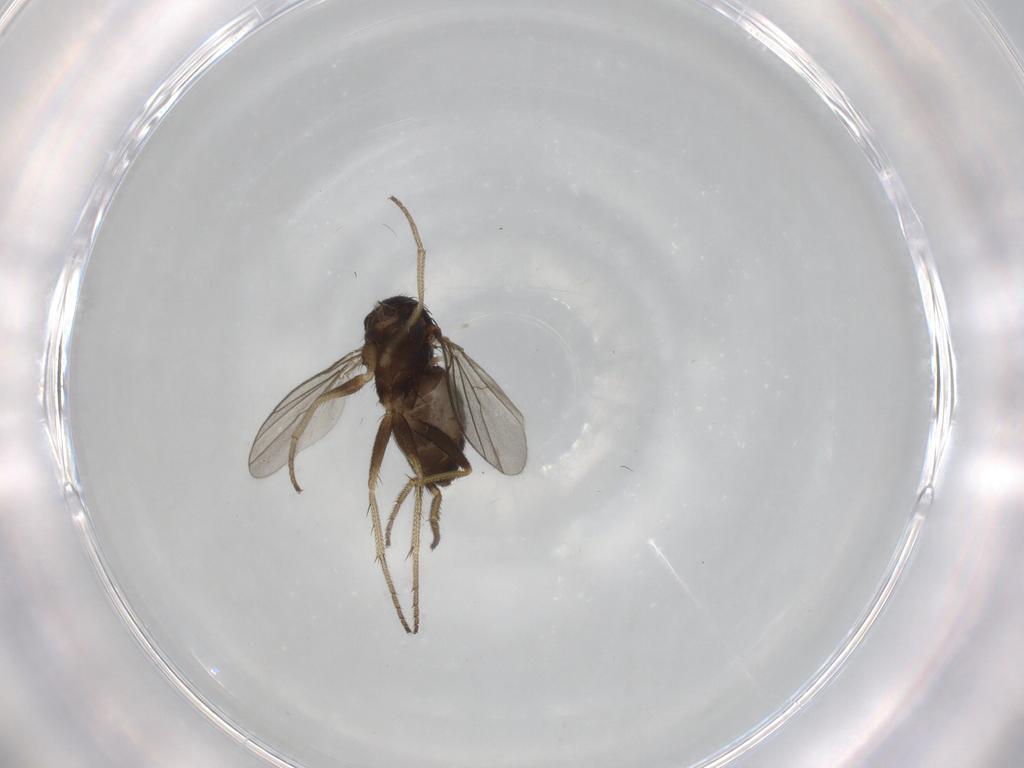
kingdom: Animalia
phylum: Arthropoda
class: Insecta
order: Diptera
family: Dolichopodidae
